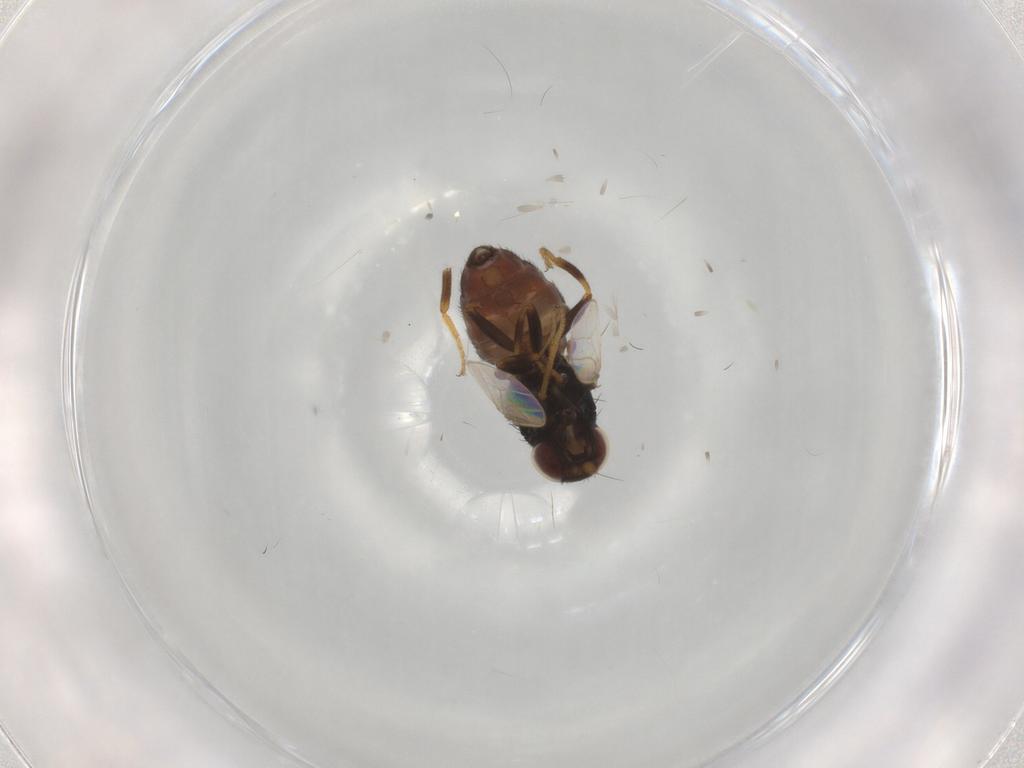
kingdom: Animalia
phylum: Arthropoda
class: Insecta
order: Diptera
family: Chloropidae
